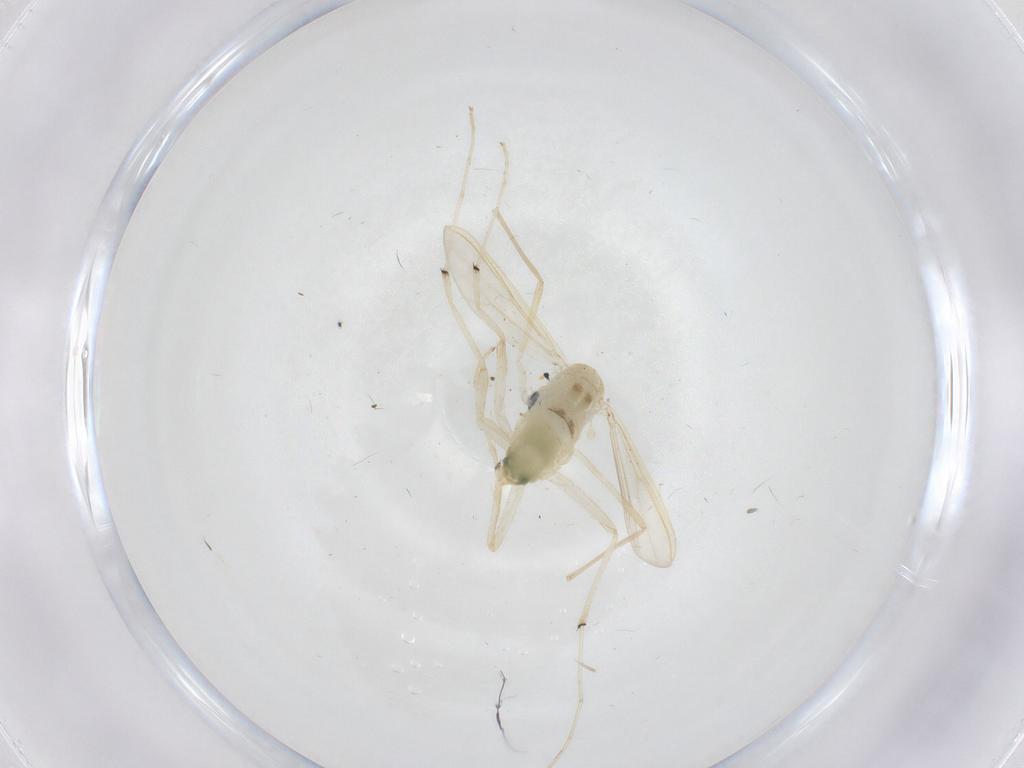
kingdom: Animalia
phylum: Arthropoda
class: Insecta
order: Diptera
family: Chironomidae
